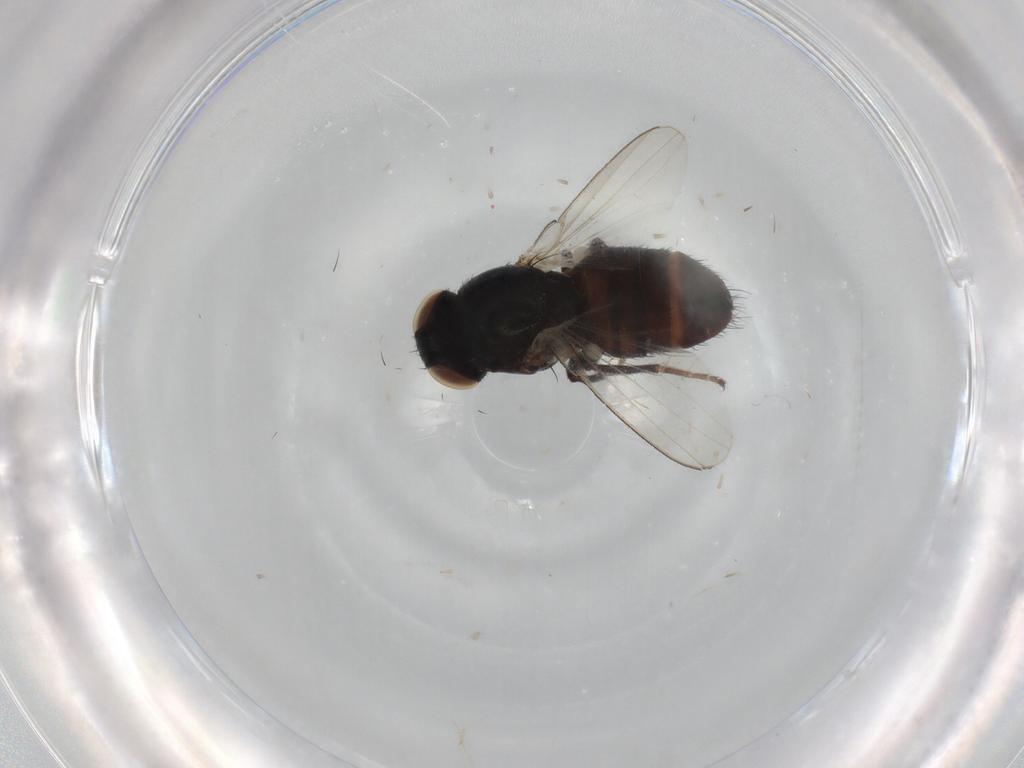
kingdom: Animalia
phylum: Arthropoda
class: Insecta
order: Diptera
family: Milichiidae
